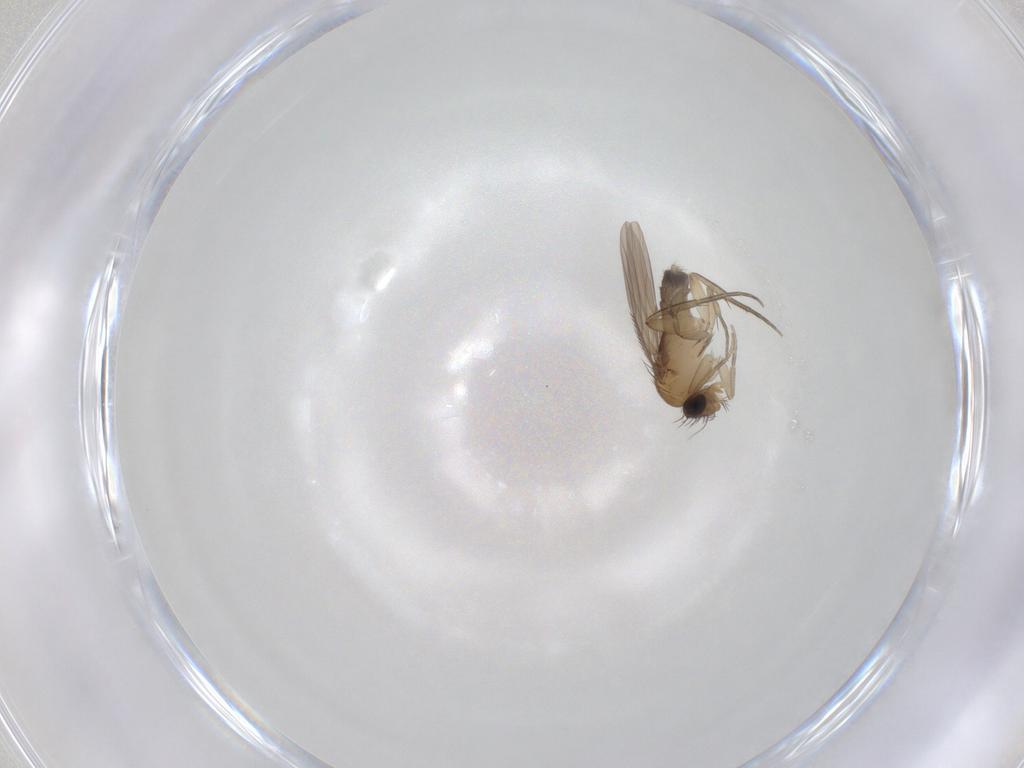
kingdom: Animalia
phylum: Arthropoda
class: Insecta
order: Diptera
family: Phoridae
